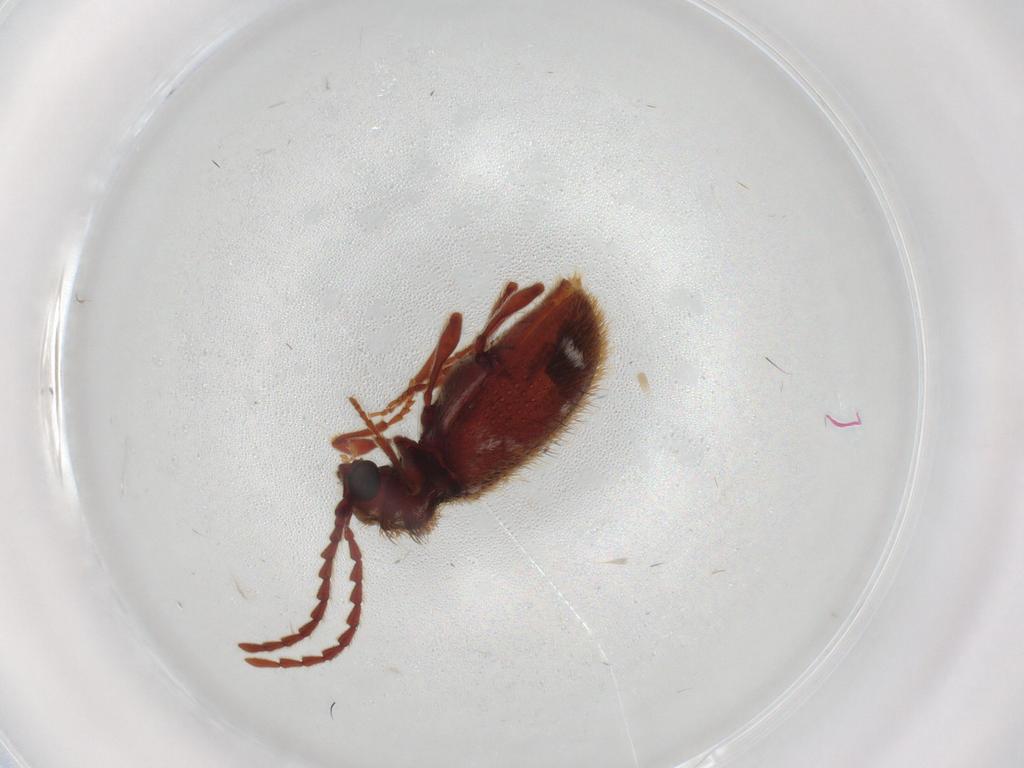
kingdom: Animalia
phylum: Arthropoda
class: Insecta
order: Coleoptera
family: Ptinidae
